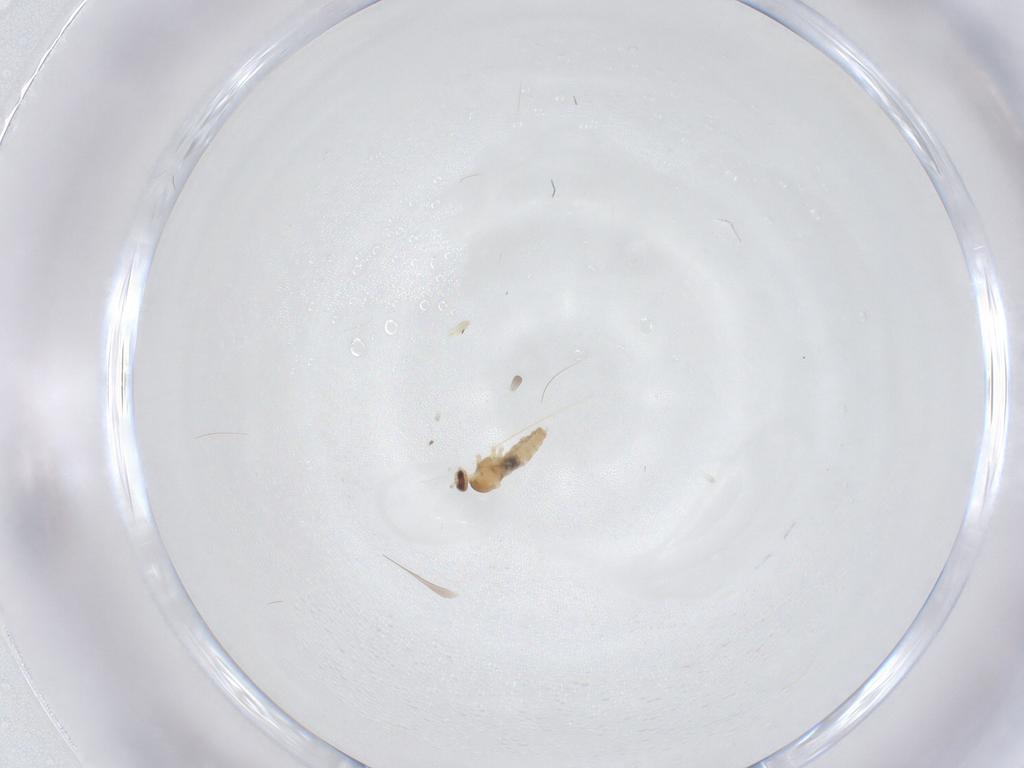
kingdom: Animalia
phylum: Arthropoda
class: Insecta
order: Diptera
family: Cecidomyiidae
